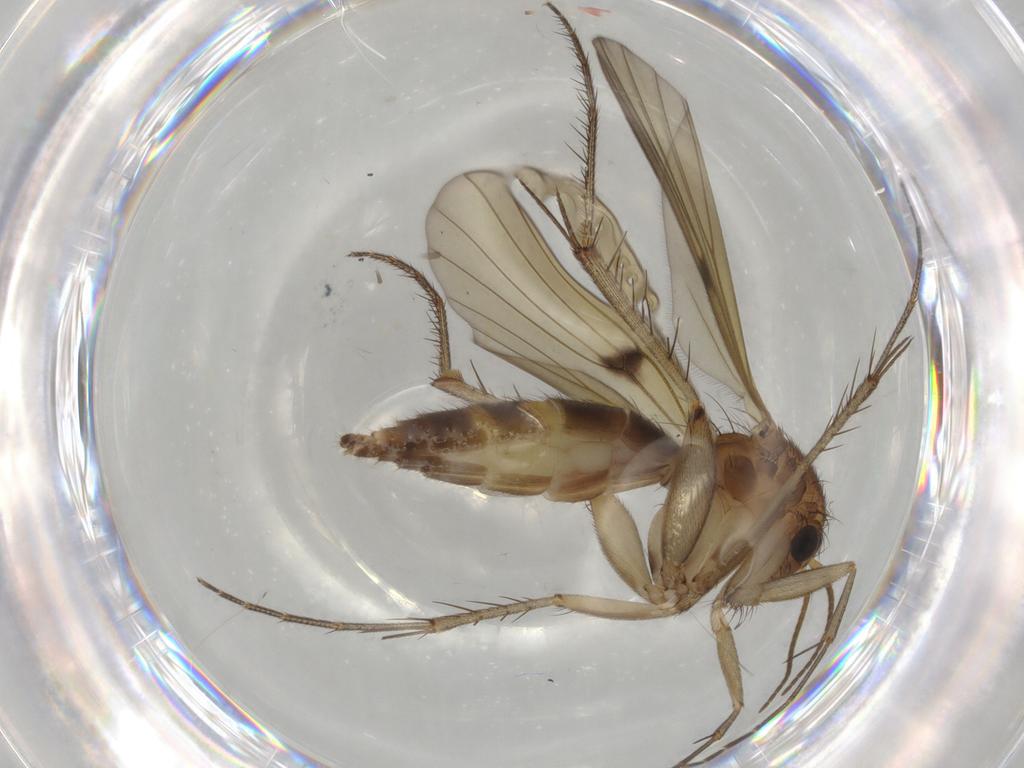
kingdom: Animalia
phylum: Arthropoda
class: Insecta
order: Diptera
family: Mycetophilidae
